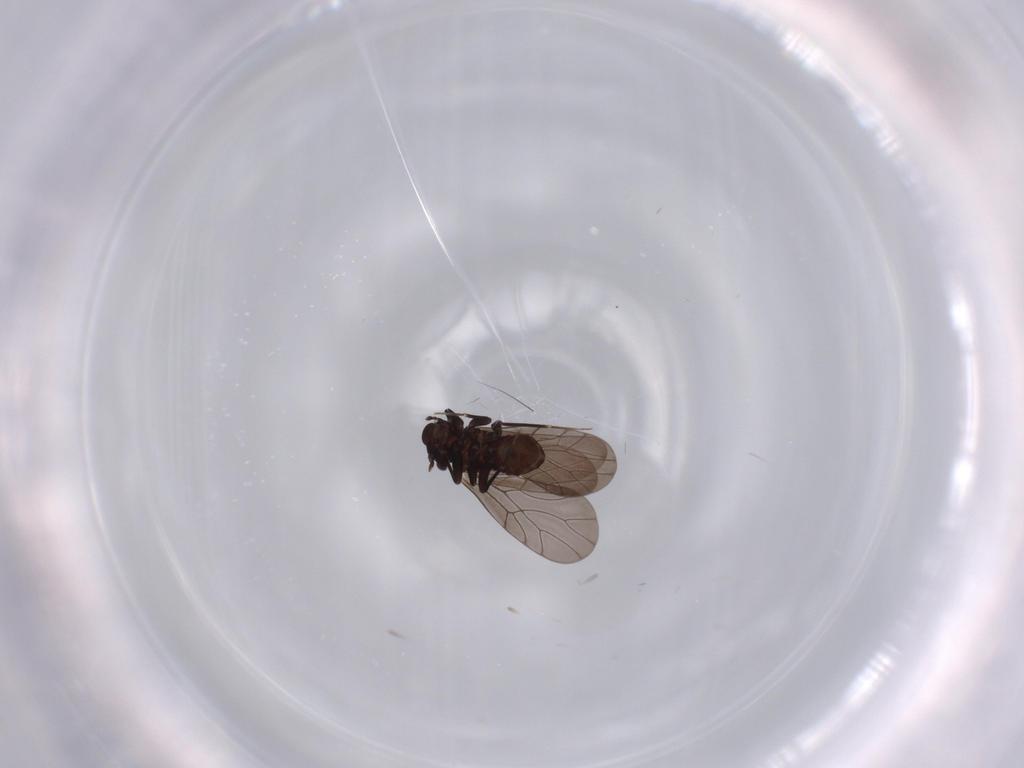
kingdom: Animalia
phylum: Arthropoda
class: Insecta
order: Psocodea
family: Lepidopsocidae
